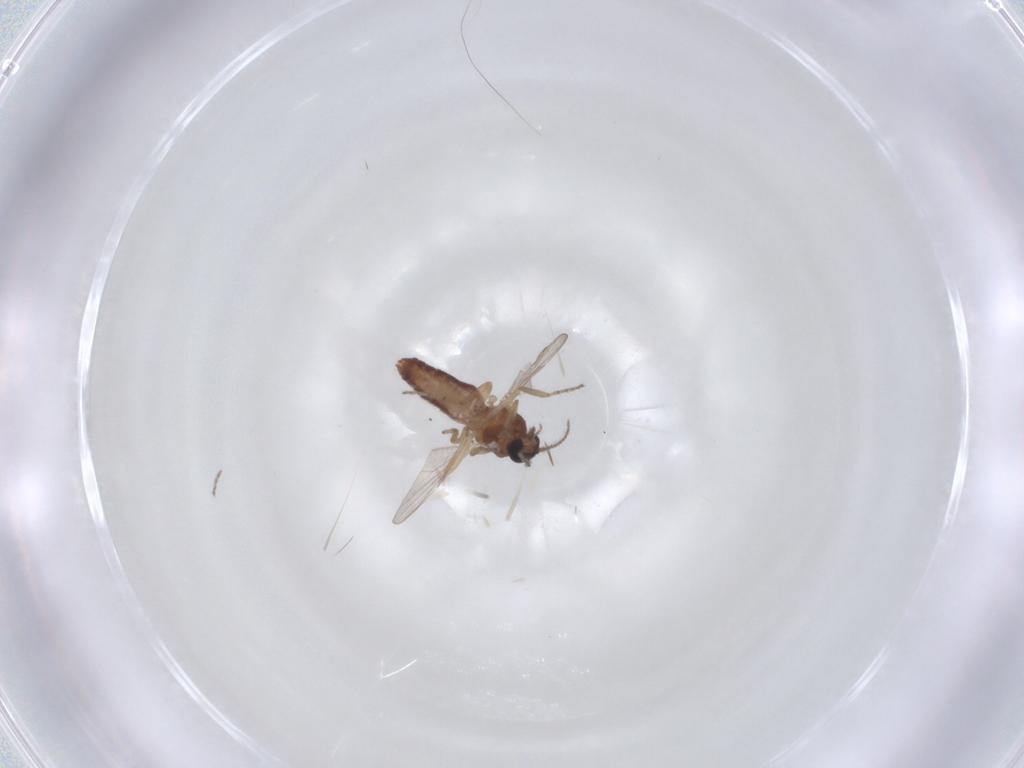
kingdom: Animalia
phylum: Arthropoda
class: Insecta
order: Diptera
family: Ceratopogonidae
